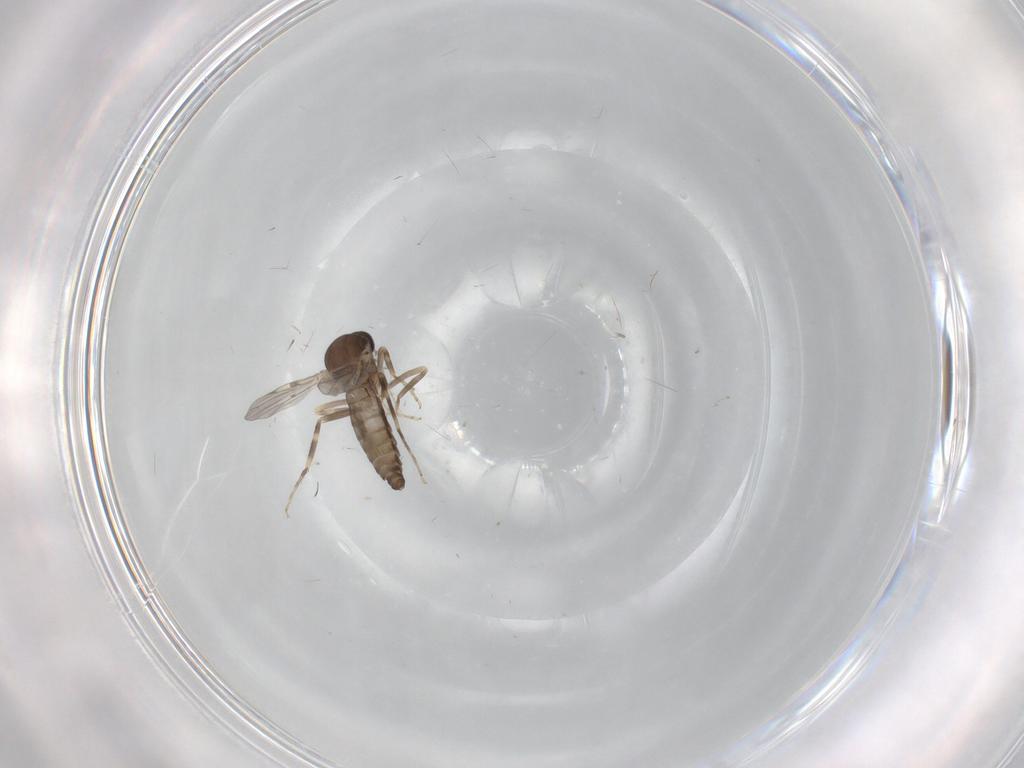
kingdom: Animalia
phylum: Arthropoda
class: Insecta
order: Diptera
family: Ceratopogonidae
